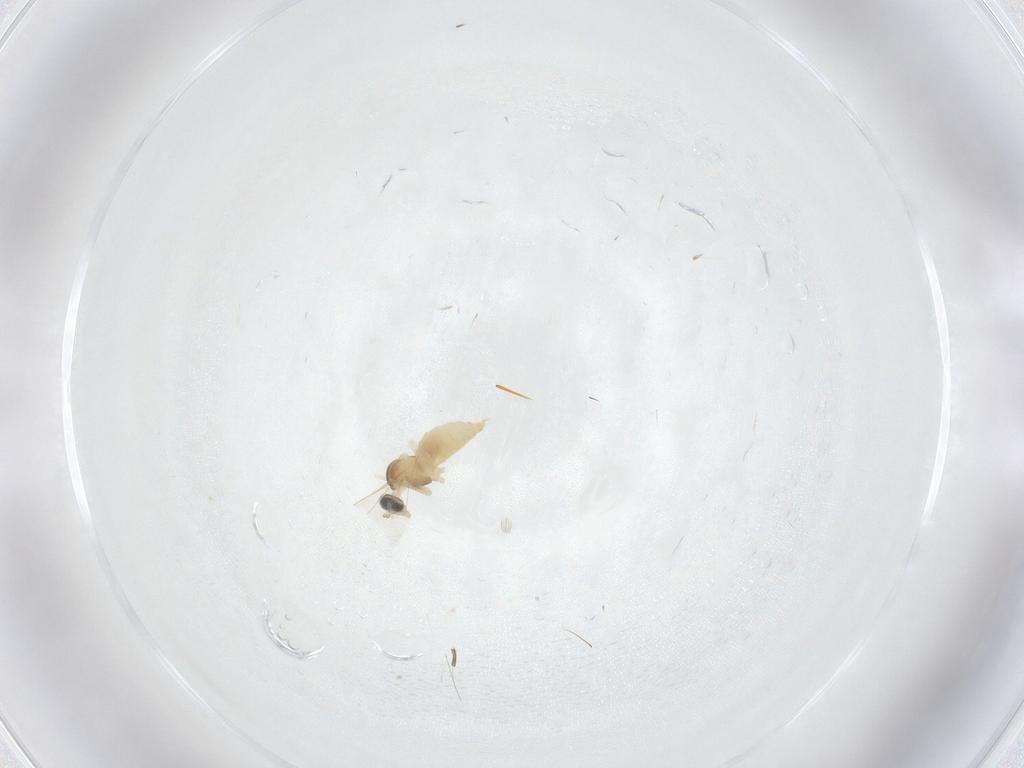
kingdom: Animalia
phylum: Arthropoda
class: Insecta
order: Diptera
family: Cecidomyiidae
